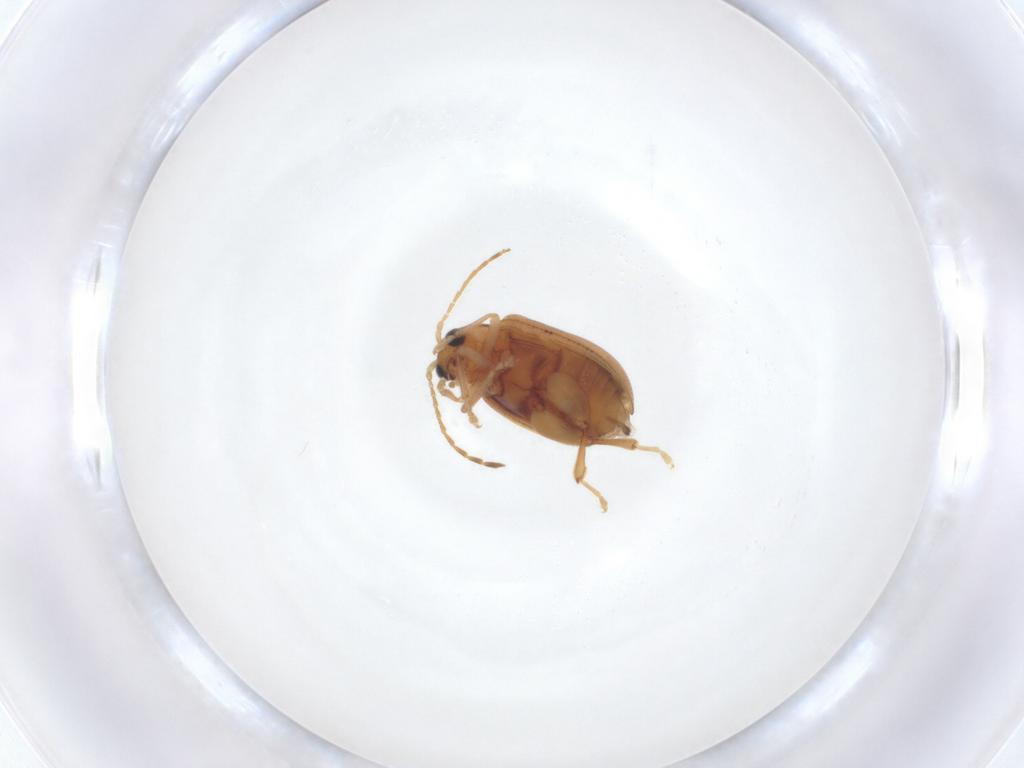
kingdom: Animalia
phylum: Arthropoda
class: Insecta
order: Coleoptera
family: Chrysomelidae
